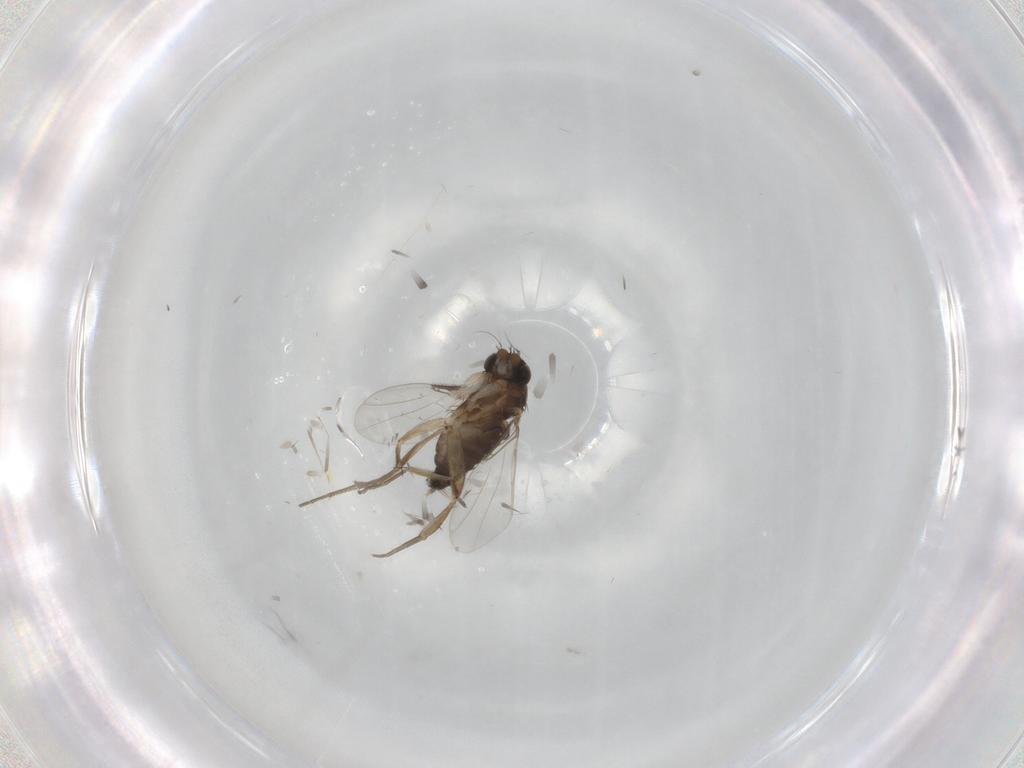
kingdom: Animalia
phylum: Arthropoda
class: Insecta
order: Diptera
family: Phoridae
